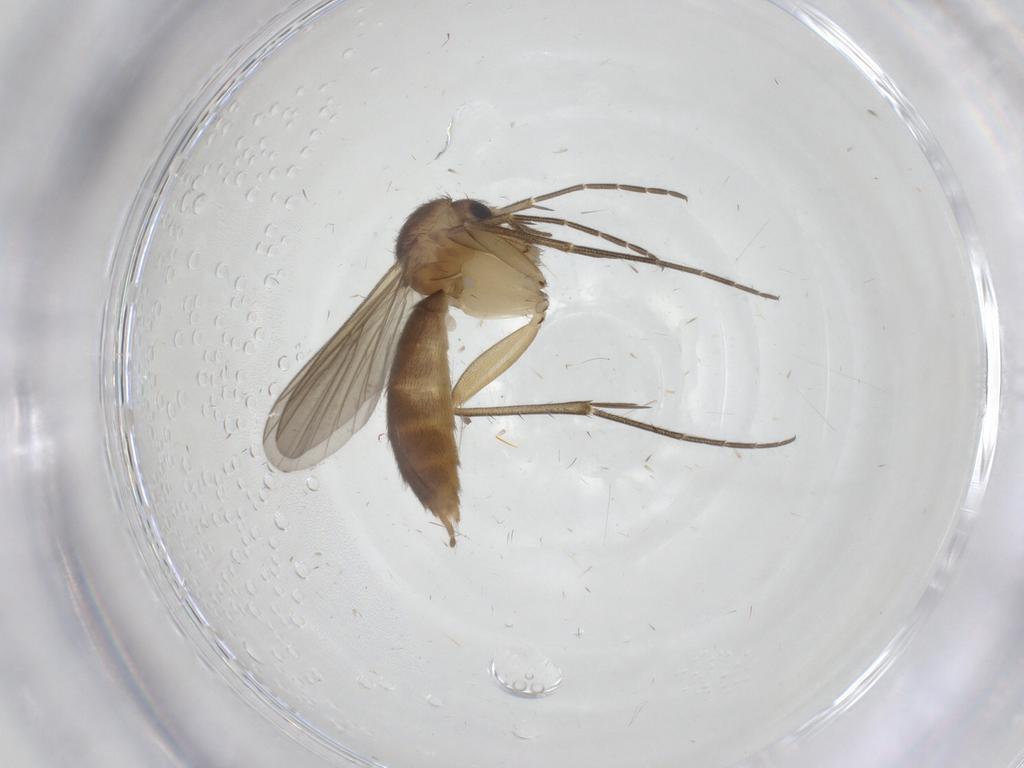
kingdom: Animalia
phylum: Arthropoda
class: Insecta
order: Diptera
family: Mycetophilidae
